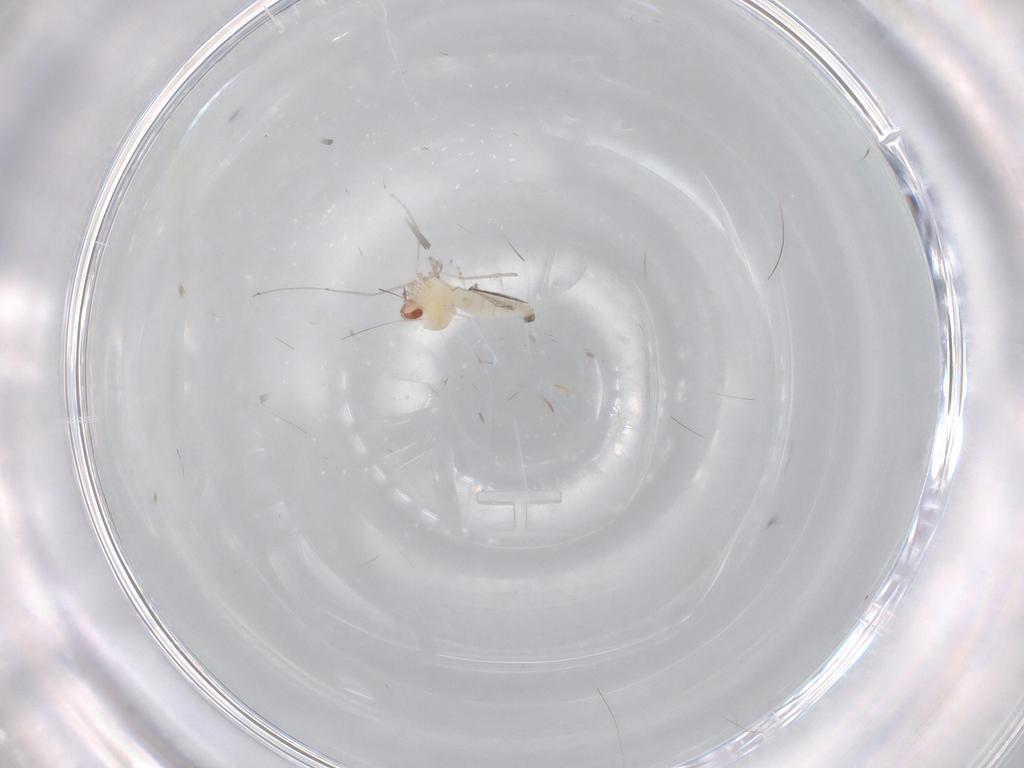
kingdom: Animalia
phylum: Arthropoda
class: Insecta
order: Diptera
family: Cecidomyiidae
